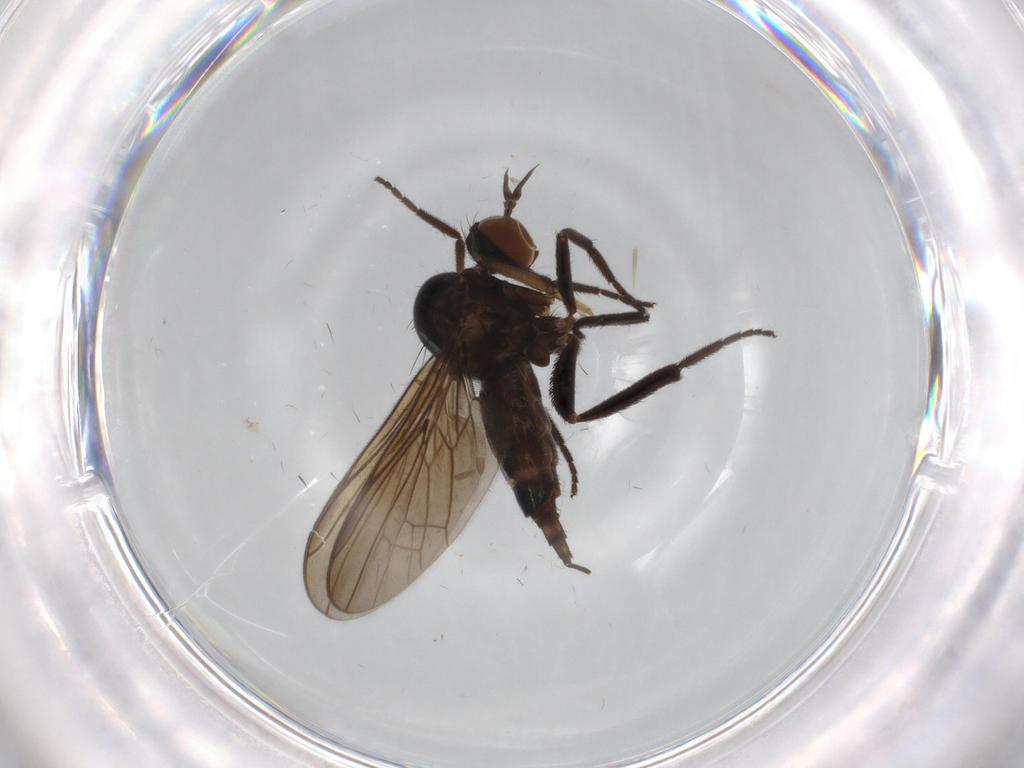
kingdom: Animalia
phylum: Arthropoda
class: Insecta
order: Diptera
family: Empididae
